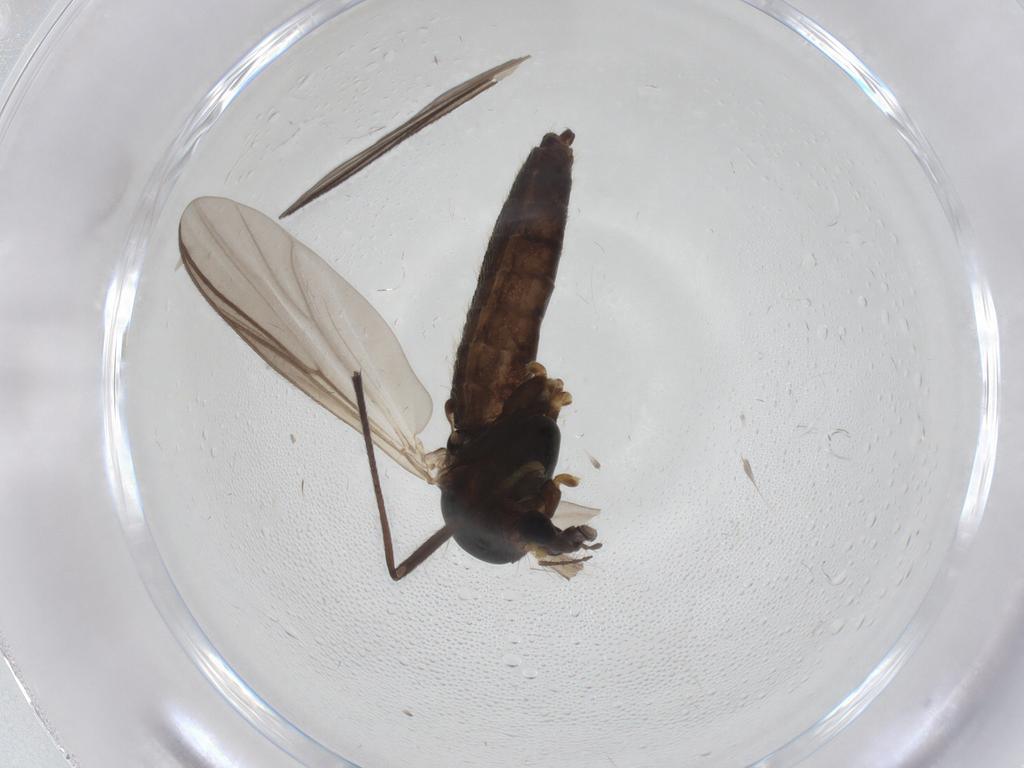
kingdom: Animalia
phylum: Arthropoda
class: Insecta
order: Diptera
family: Chironomidae
